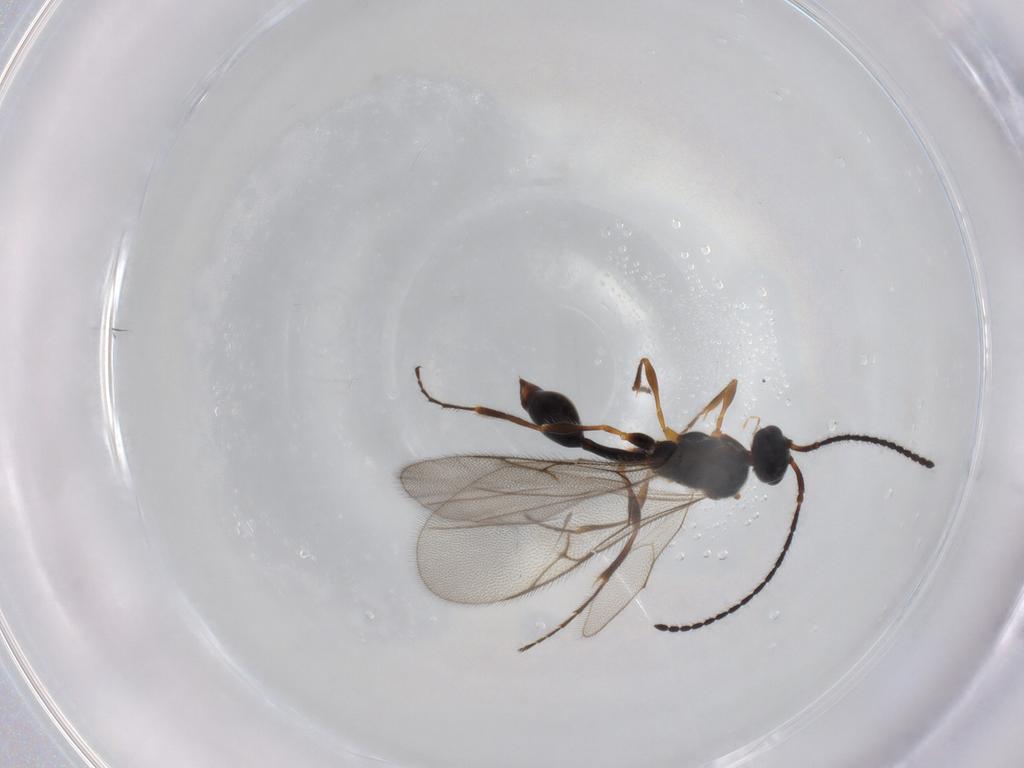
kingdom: Animalia
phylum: Arthropoda
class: Insecta
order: Hymenoptera
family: Diapriidae
